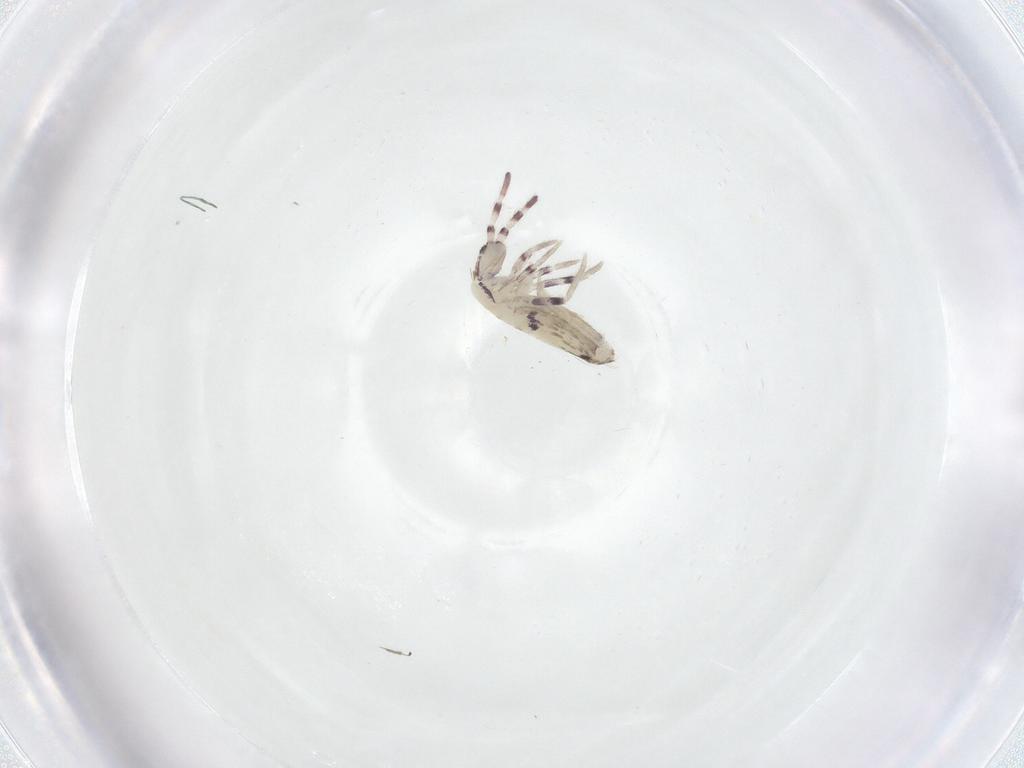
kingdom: Animalia
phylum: Arthropoda
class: Collembola
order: Entomobryomorpha
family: Entomobryidae
